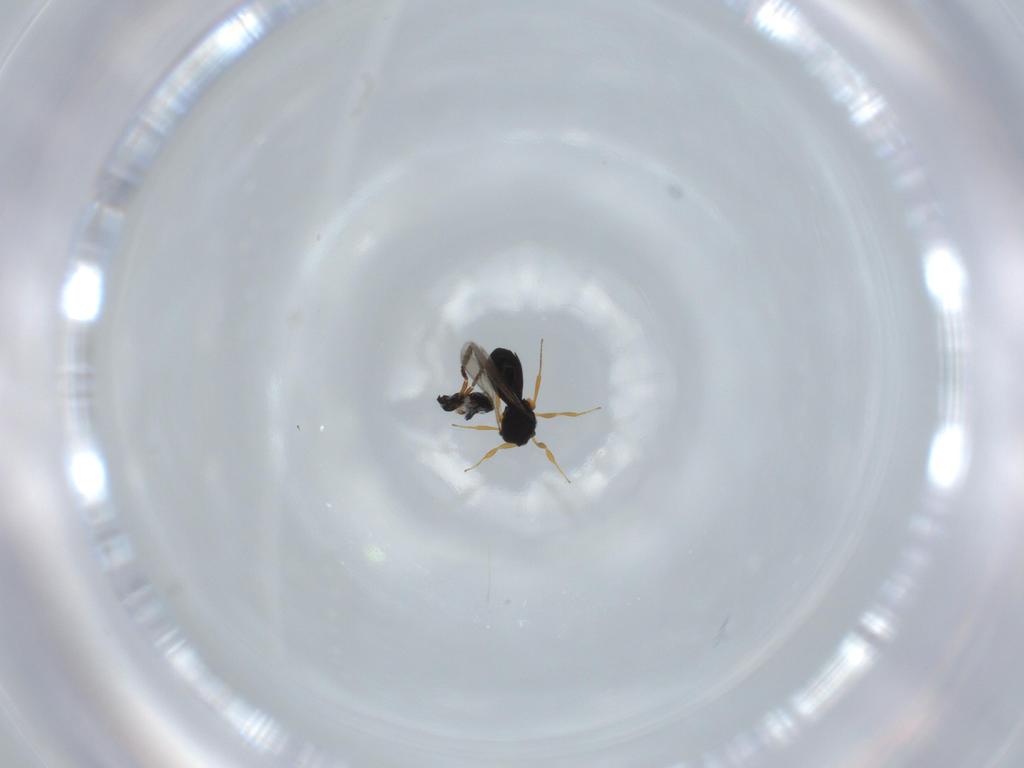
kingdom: Animalia
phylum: Arthropoda
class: Insecta
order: Hymenoptera
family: Scelionidae
